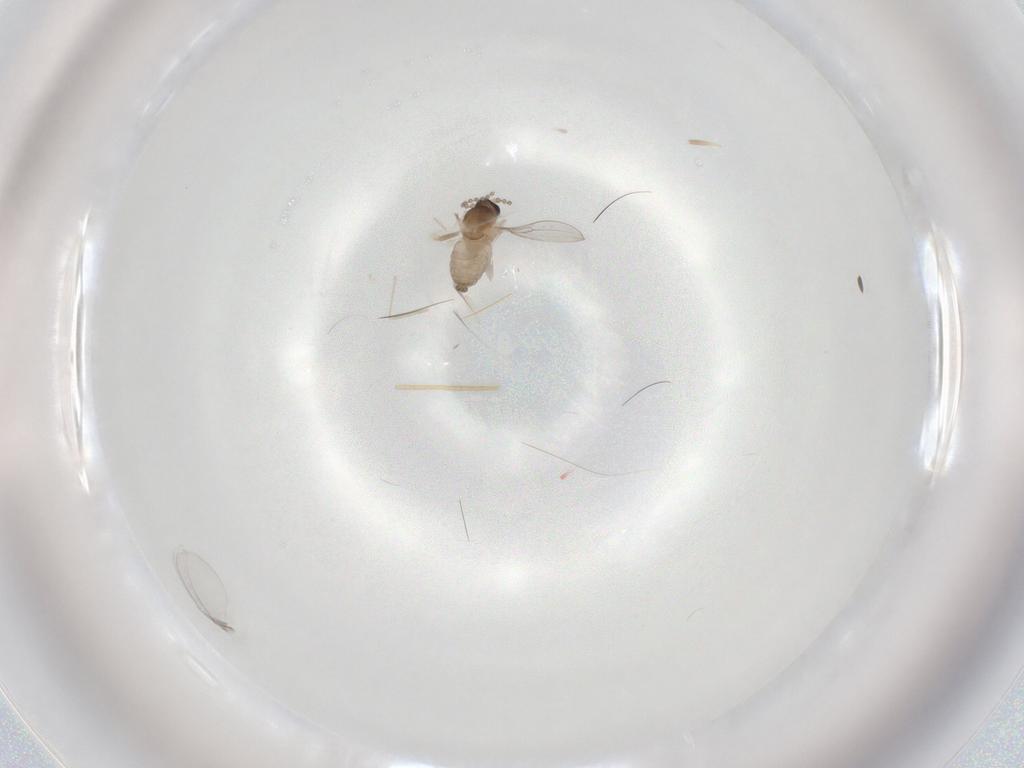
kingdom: Animalia
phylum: Arthropoda
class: Insecta
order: Diptera
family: Cecidomyiidae
